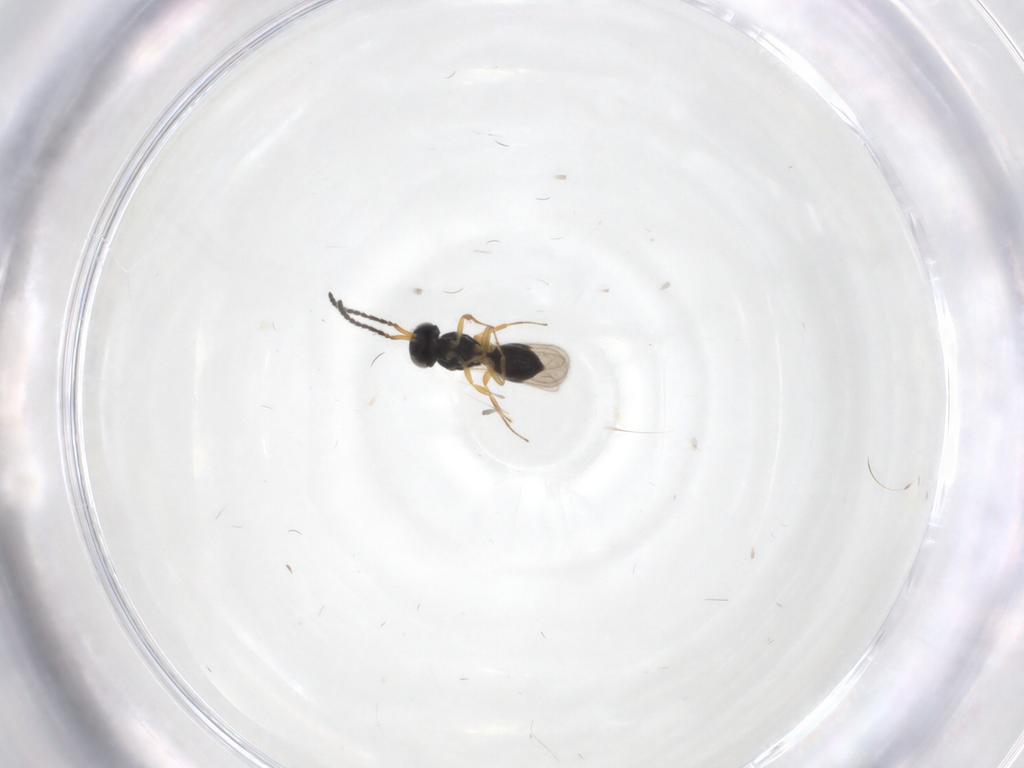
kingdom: Animalia
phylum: Arthropoda
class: Insecta
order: Hymenoptera
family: Scelionidae
